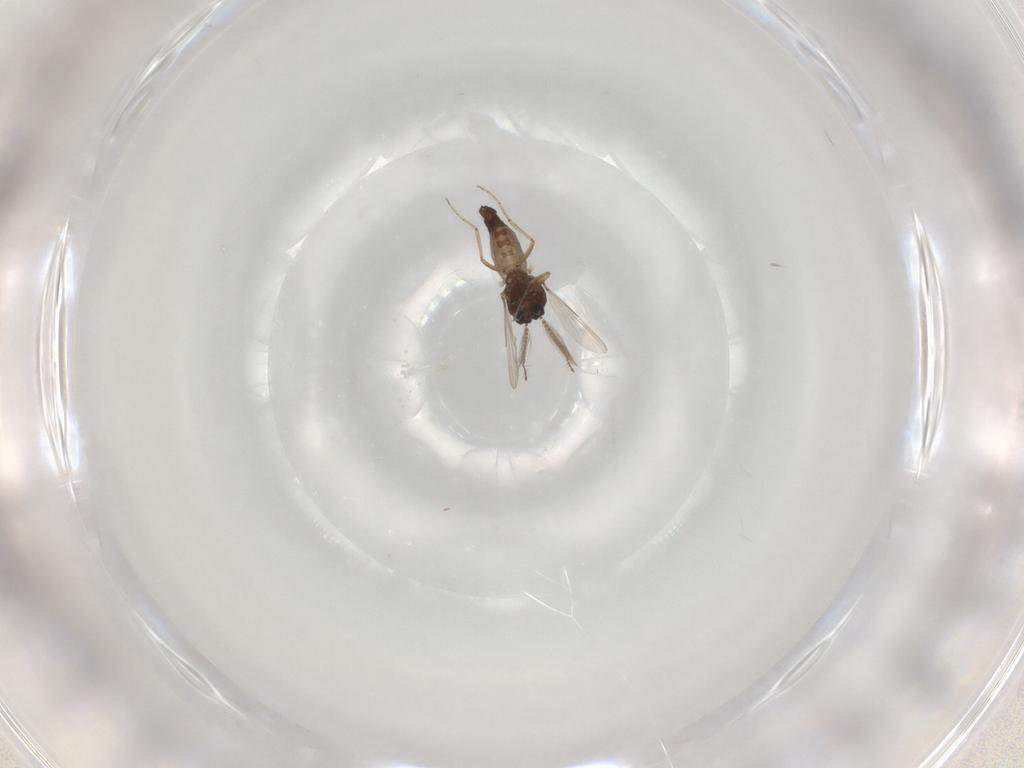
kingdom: Animalia
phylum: Arthropoda
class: Insecta
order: Diptera
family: Ceratopogonidae
